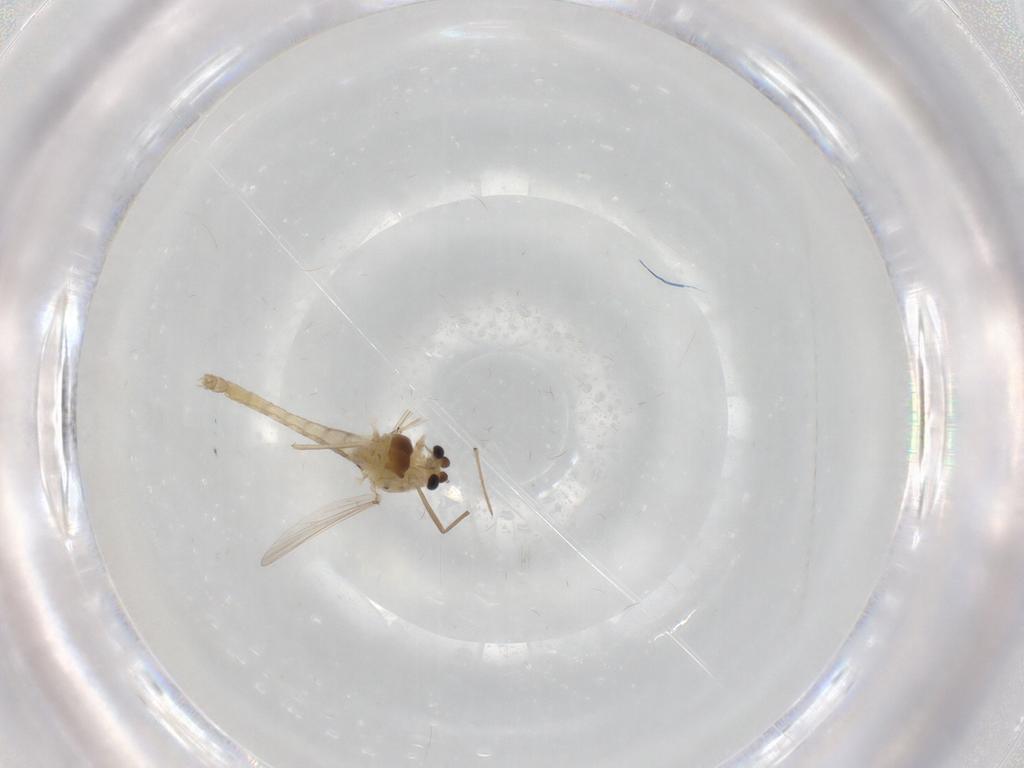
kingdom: Animalia
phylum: Arthropoda
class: Insecta
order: Diptera
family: Chironomidae
